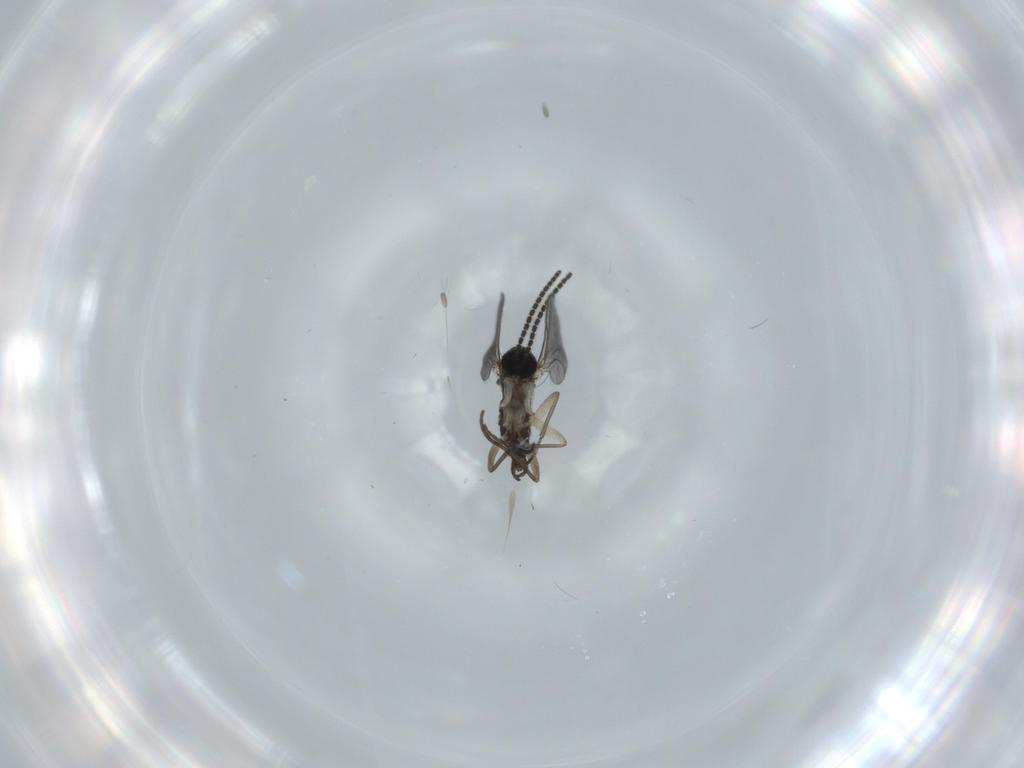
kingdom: Animalia
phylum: Arthropoda
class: Insecta
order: Diptera
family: Sciaridae
